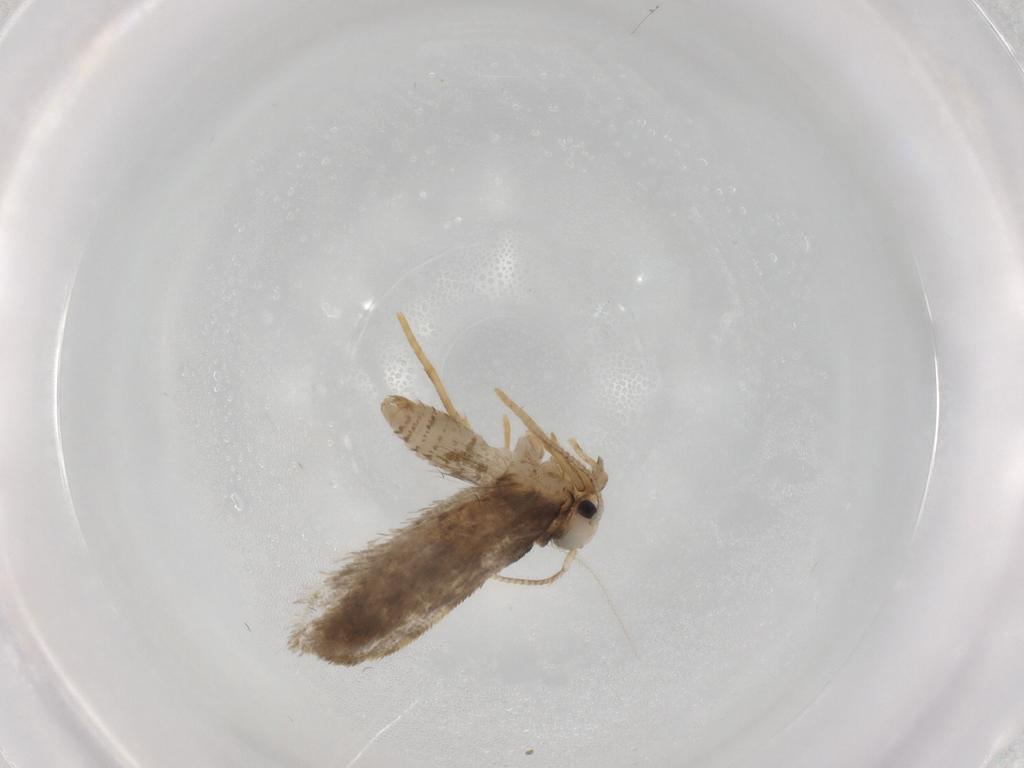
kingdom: Animalia
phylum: Arthropoda
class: Insecta
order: Lepidoptera
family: Psychidae
